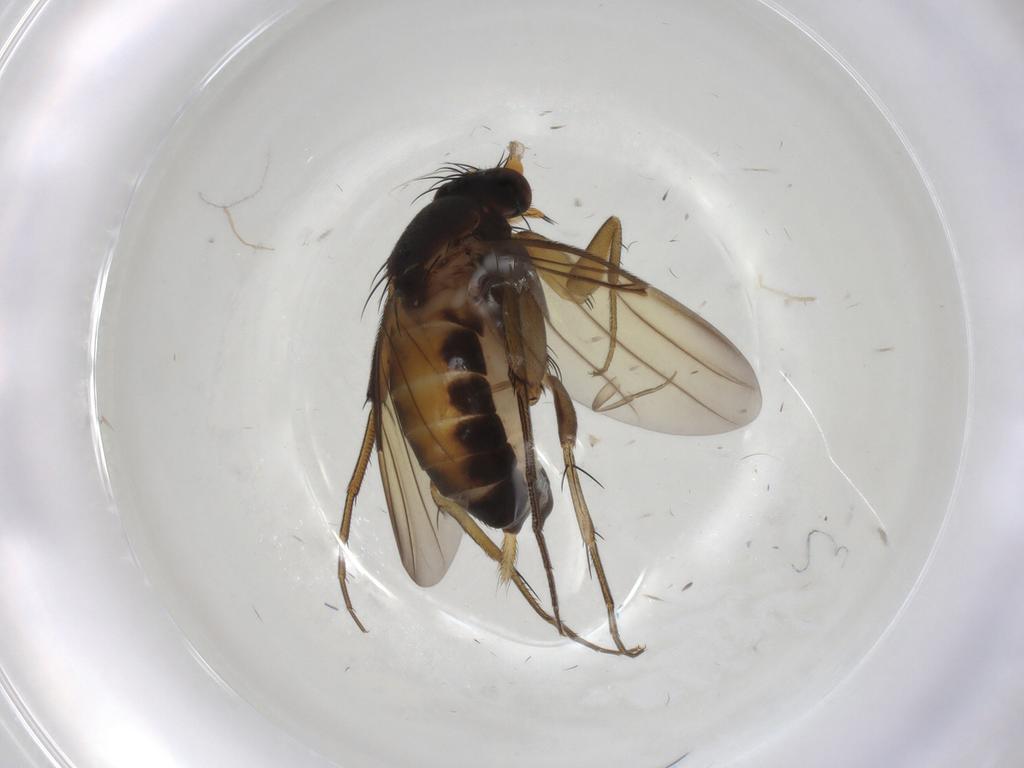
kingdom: Animalia
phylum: Arthropoda
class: Insecta
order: Diptera
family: Phoridae
